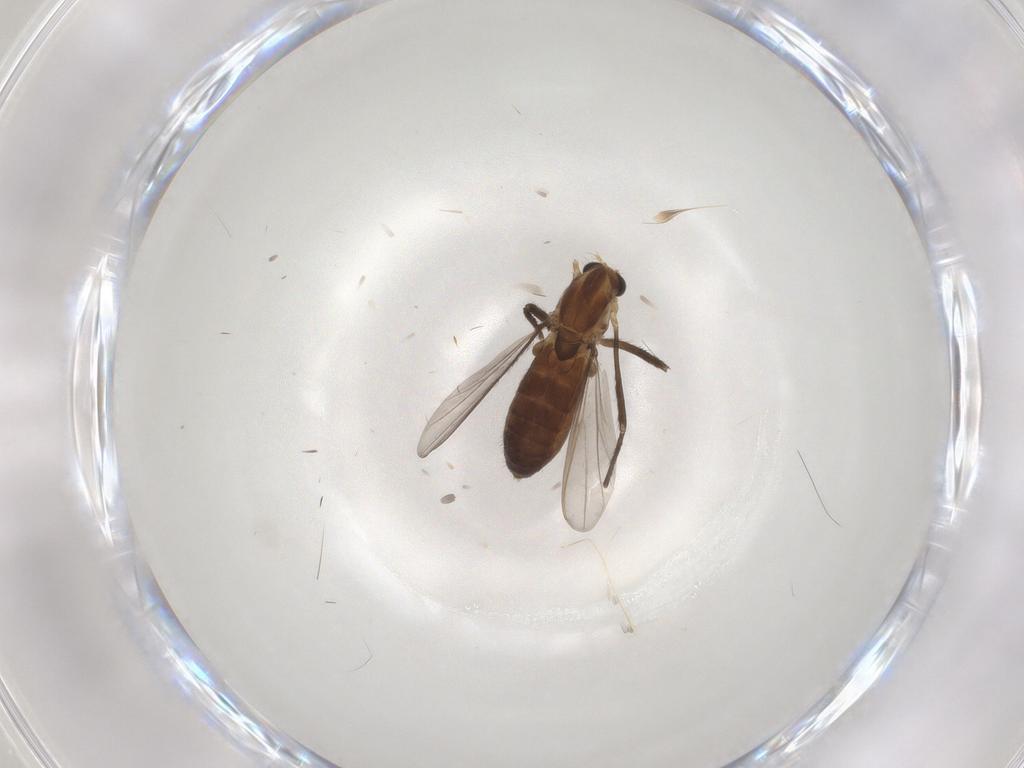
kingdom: Animalia
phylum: Arthropoda
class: Insecta
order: Diptera
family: Chironomidae
